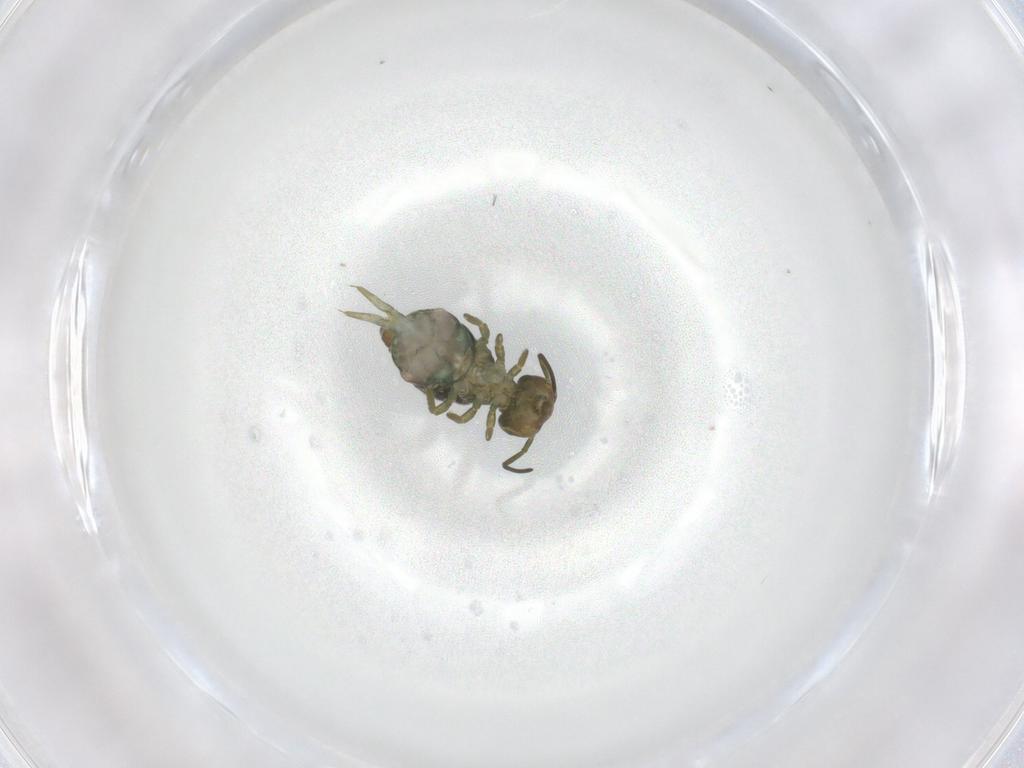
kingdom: Animalia
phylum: Arthropoda
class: Collembola
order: Symphypleona
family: Sminthuridae
